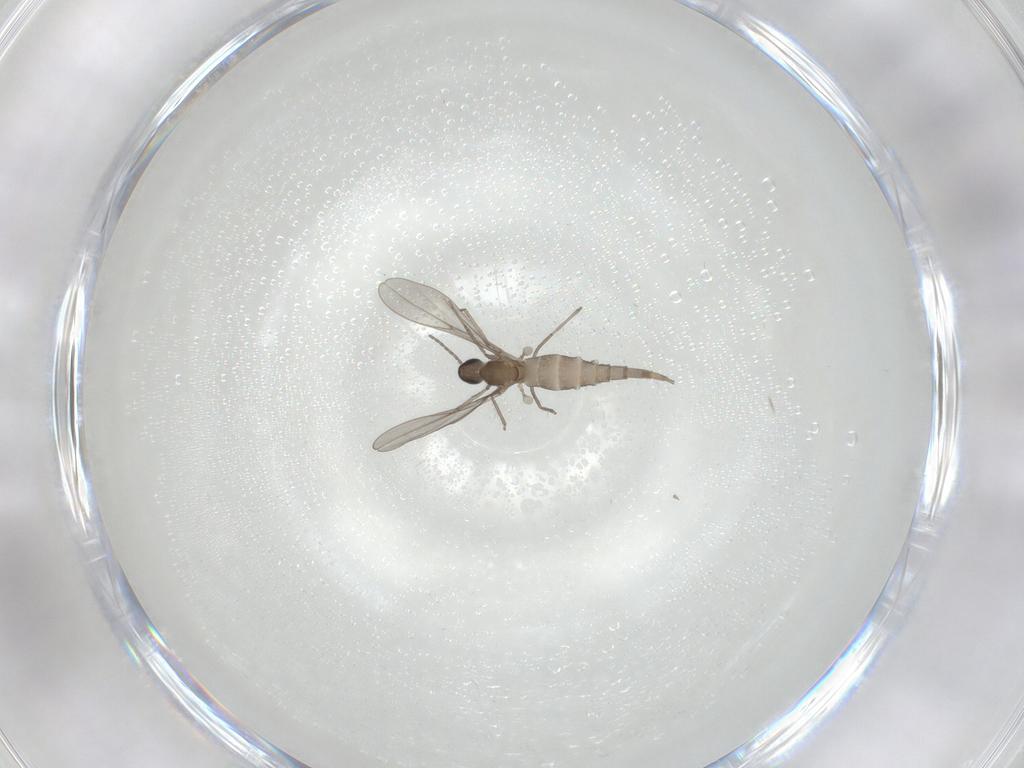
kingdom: Animalia
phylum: Arthropoda
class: Insecta
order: Diptera
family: Cecidomyiidae
